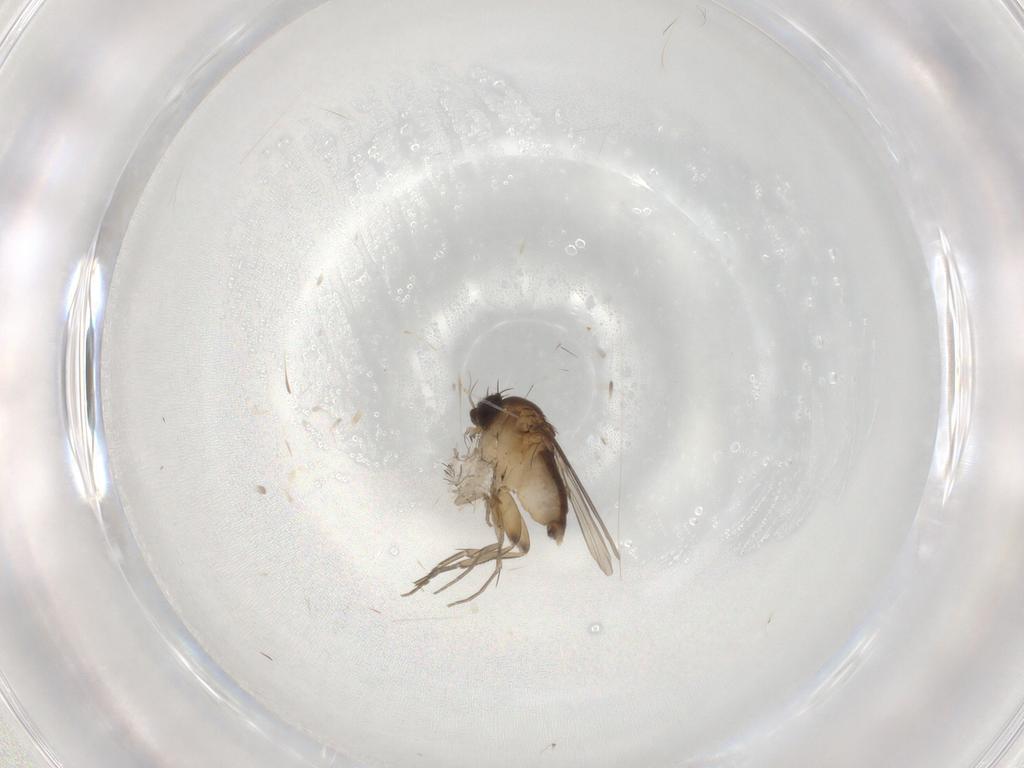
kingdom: Animalia
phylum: Arthropoda
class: Insecta
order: Diptera
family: Phoridae
